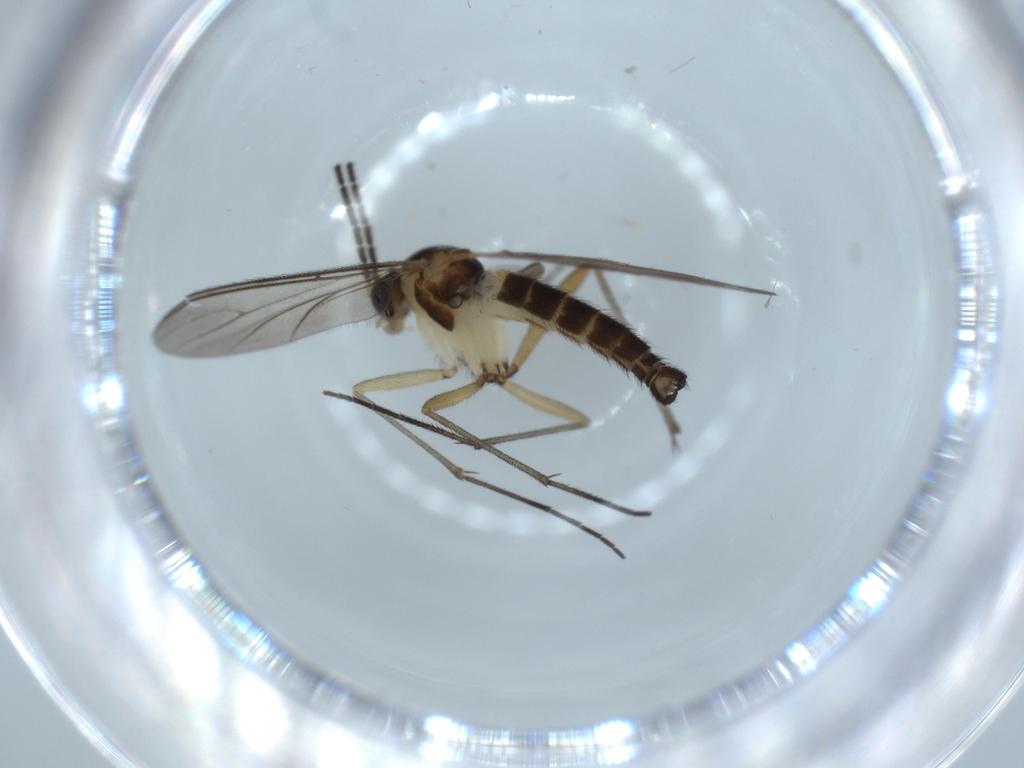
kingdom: Animalia
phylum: Arthropoda
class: Insecta
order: Diptera
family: Sciaridae
